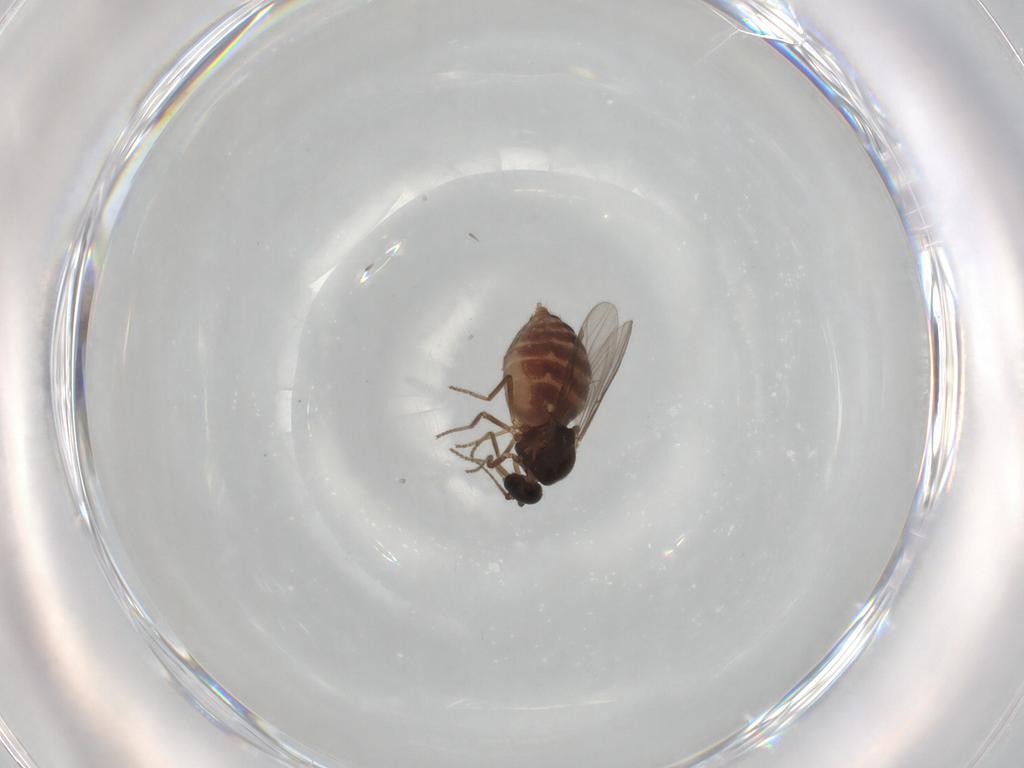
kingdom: Animalia
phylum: Arthropoda
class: Insecta
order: Diptera
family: Ceratopogonidae
